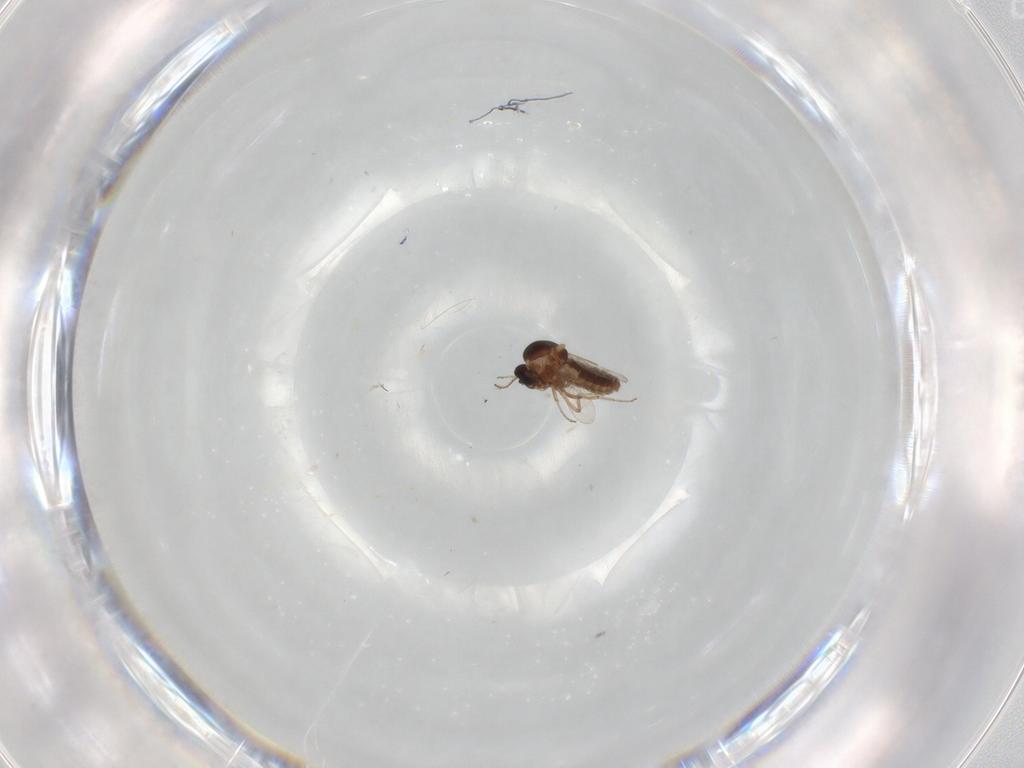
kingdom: Animalia
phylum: Arthropoda
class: Insecta
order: Diptera
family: Ceratopogonidae
